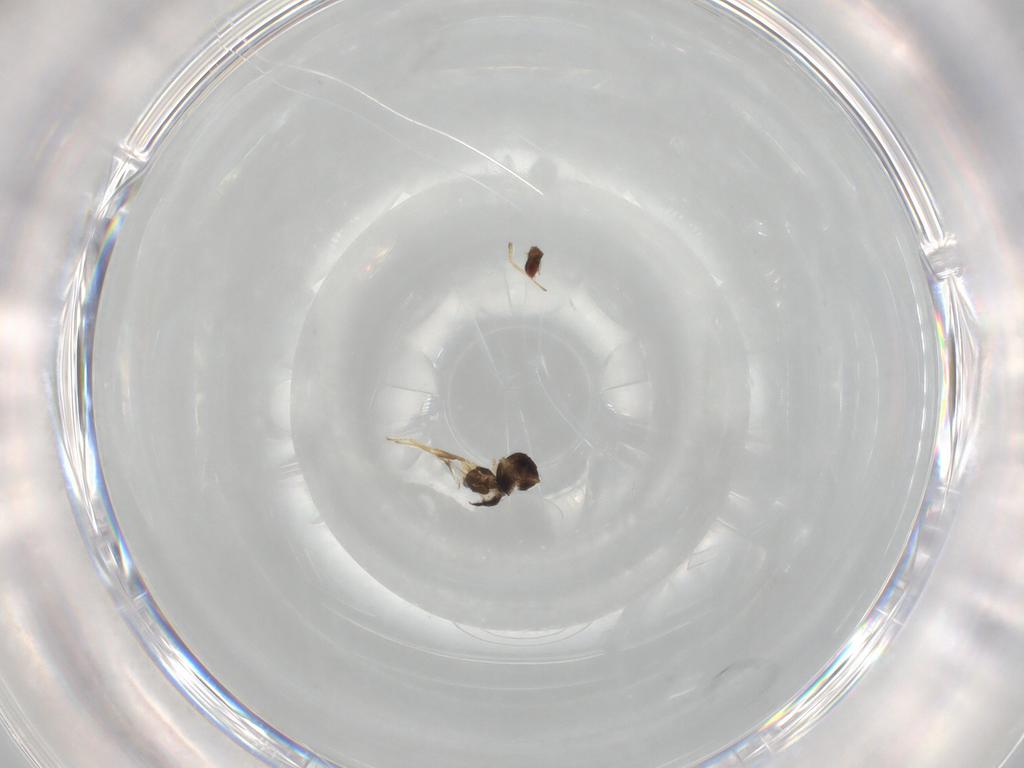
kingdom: Animalia
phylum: Arthropoda
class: Insecta
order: Hymenoptera
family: Eulophidae
